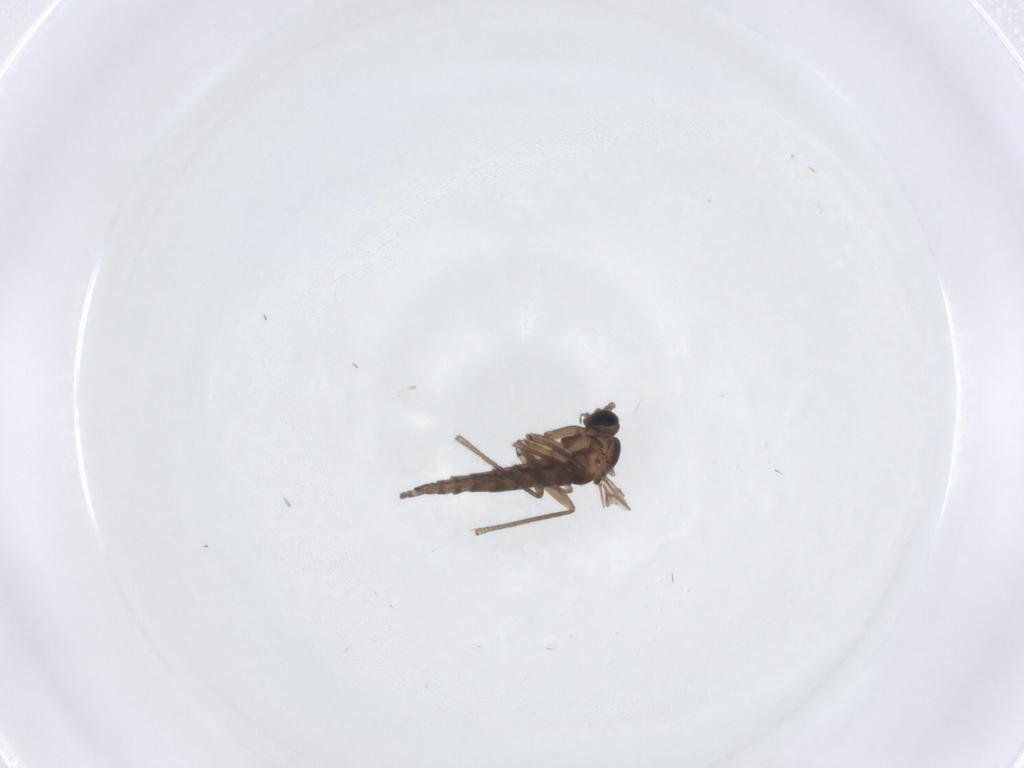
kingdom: Animalia
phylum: Arthropoda
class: Insecta
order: Diptera
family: Sciaridae
